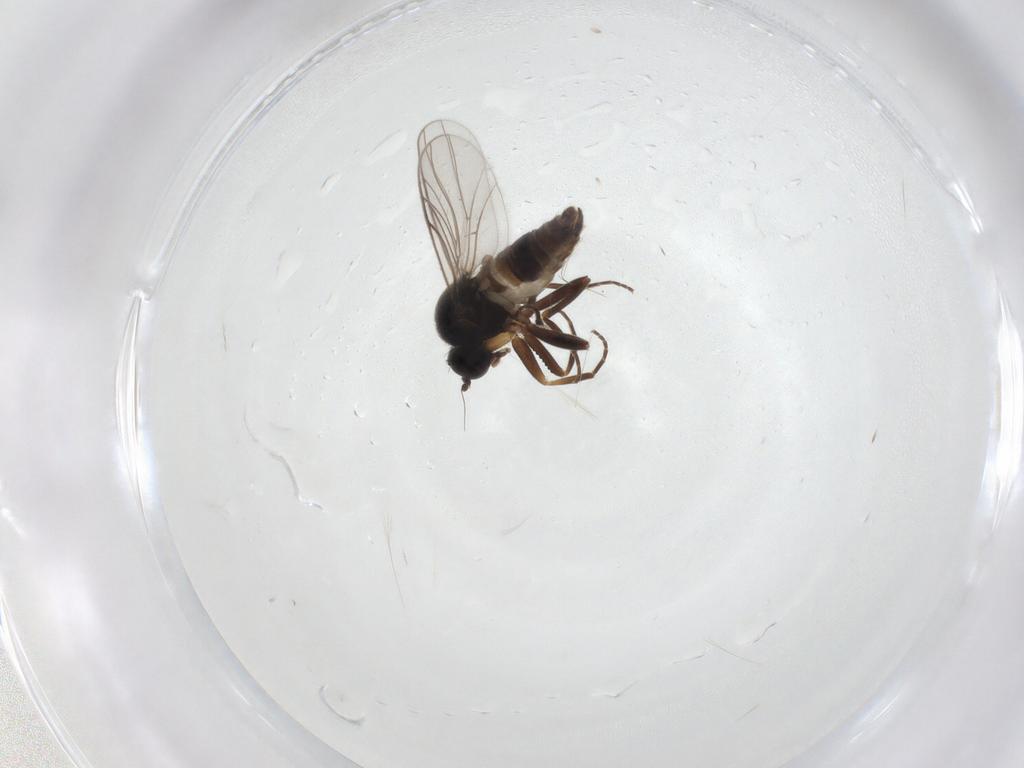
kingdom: Animalia
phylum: Arthropoda
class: Insecta
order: Diptera
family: Hybotidae
